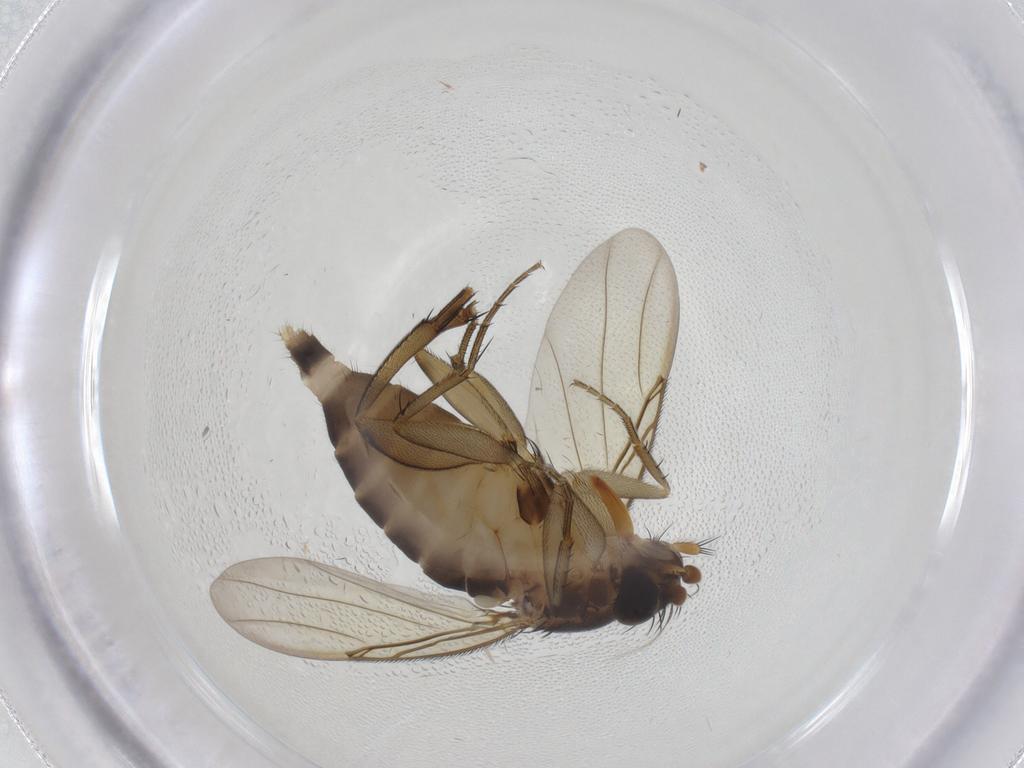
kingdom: Animalia
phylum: Arthropoda
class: Insecta
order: Diptera
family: Phoridae
